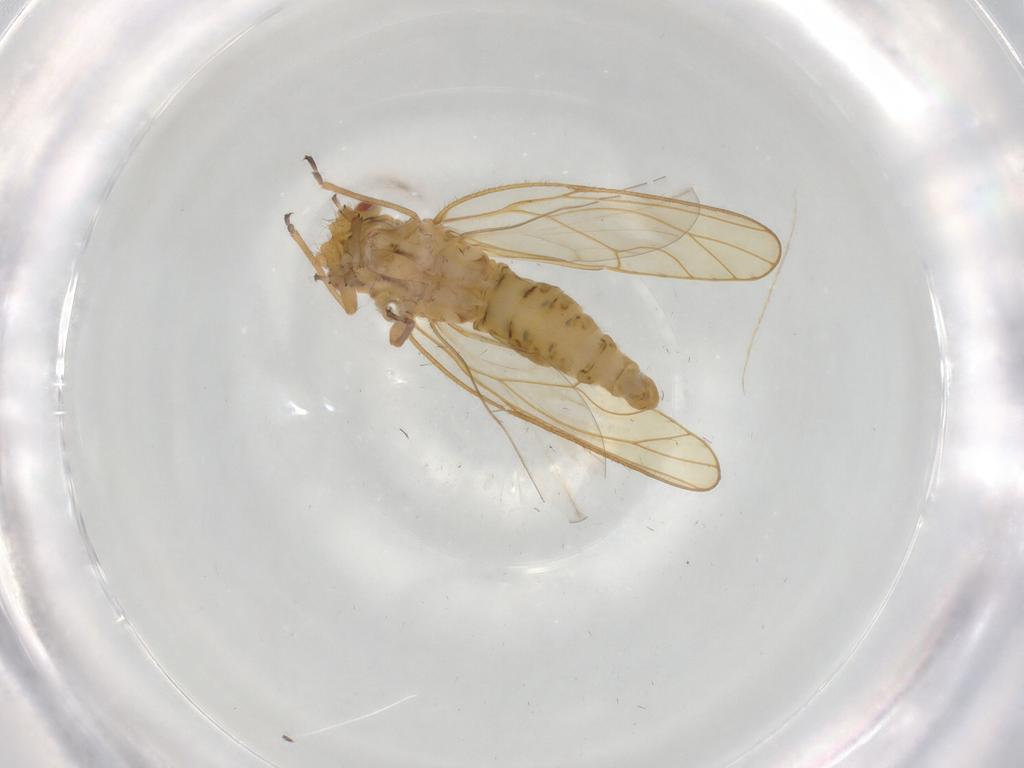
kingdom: Animalia
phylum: Arthropoda
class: Insecta
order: Hemiptera
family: Psyllidae
